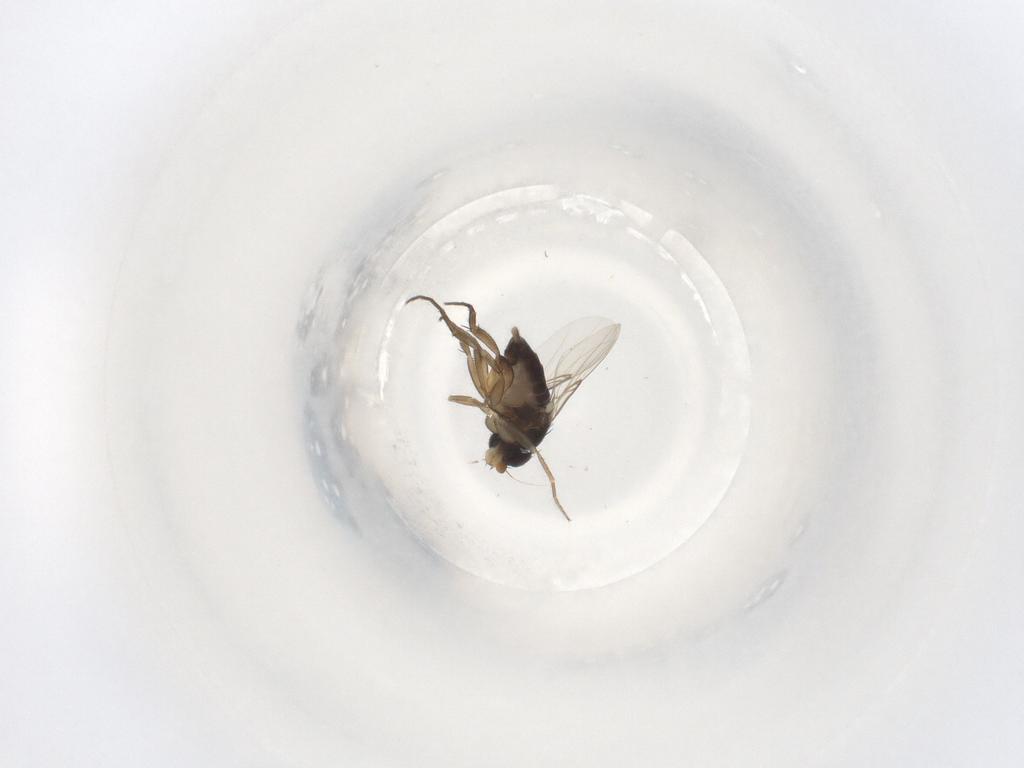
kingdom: Animalia
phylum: Arthropoda
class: Insecta
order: Diptera
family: Phoridae
